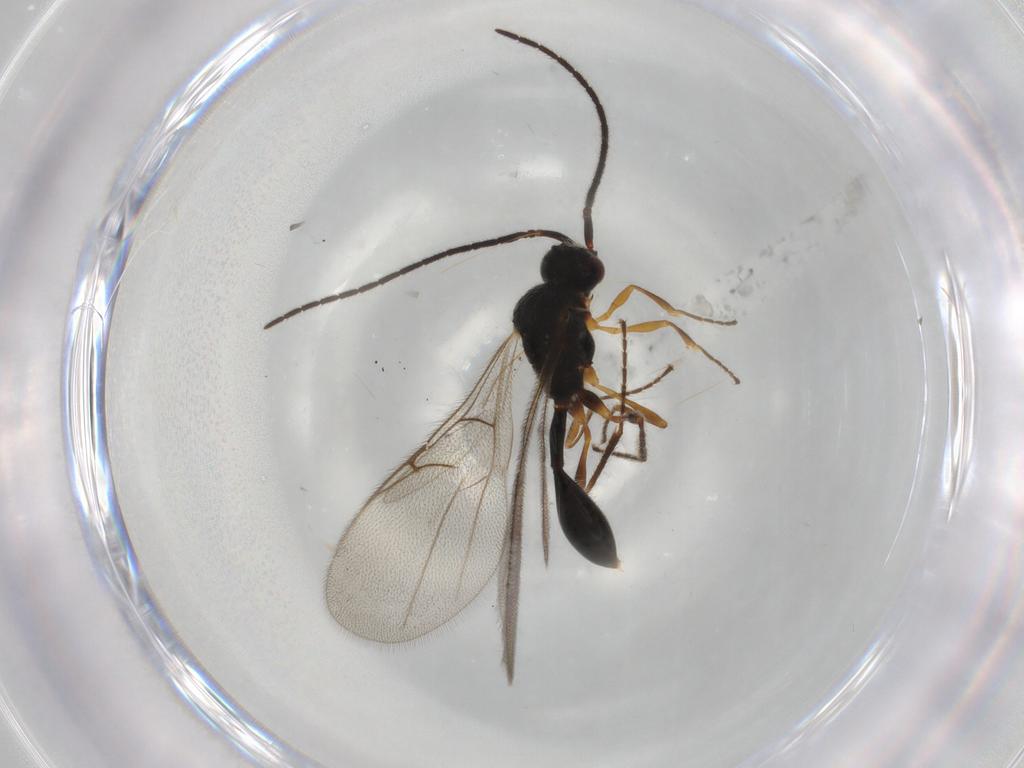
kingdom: Animalia
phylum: Arthropoda
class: Insecta
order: Hymenoptera
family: Diapriidae
